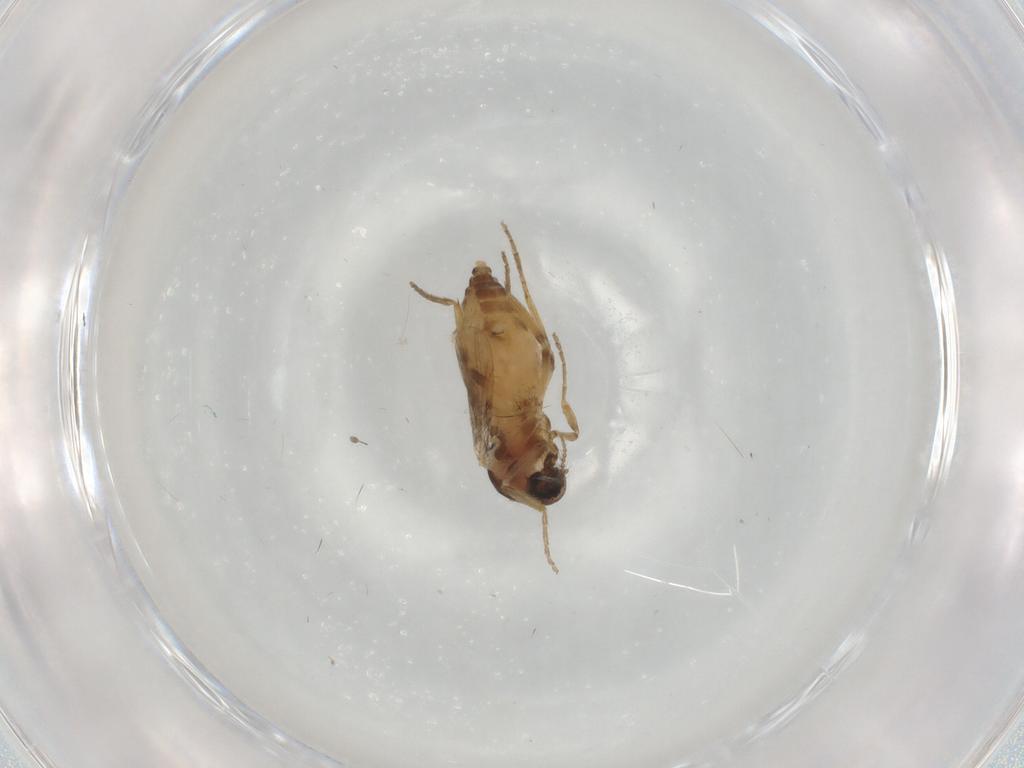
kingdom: Animalia
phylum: Arthropoda
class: Insecta
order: Diptera
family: Ceratopogonidae
